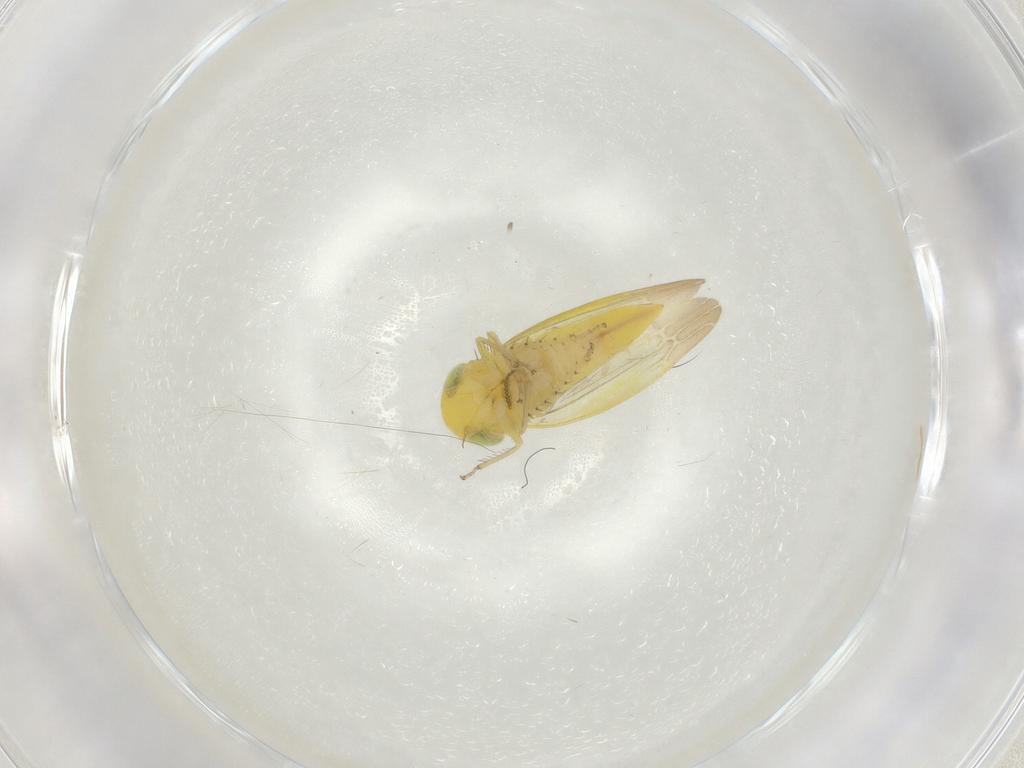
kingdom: Animalia
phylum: Arthropoda
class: Insecta
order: Hemiptera
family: Cicadellidae
